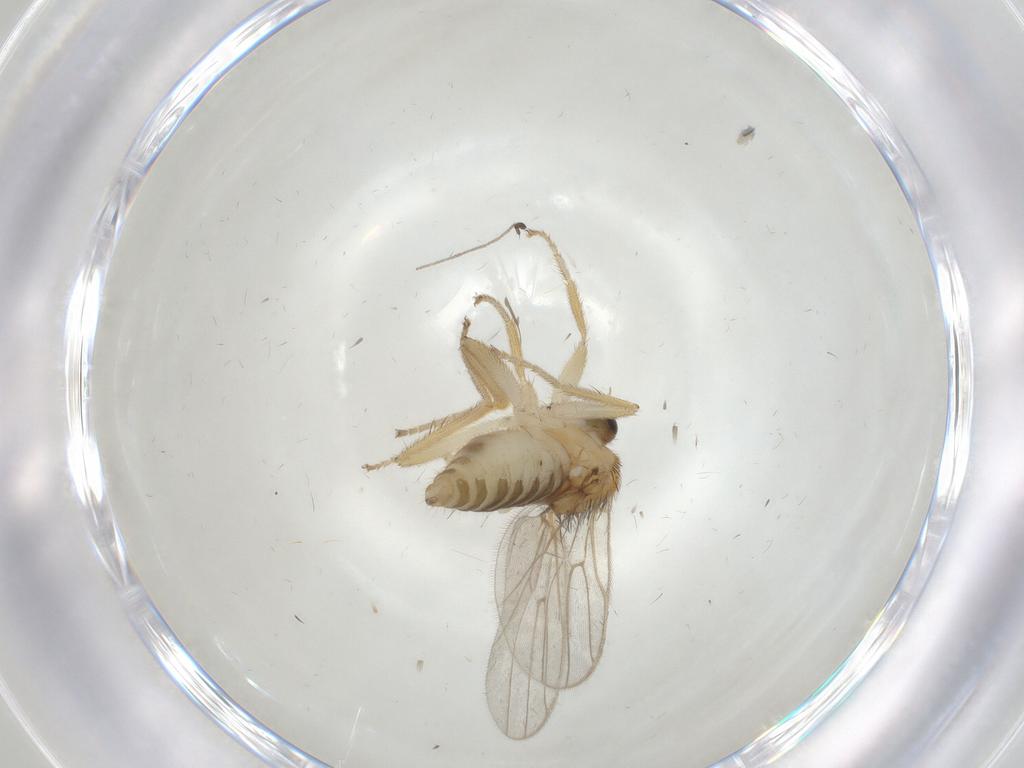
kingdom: Animalia
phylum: Arthropoda
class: Insecta
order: Diptera
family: Hybotidae
